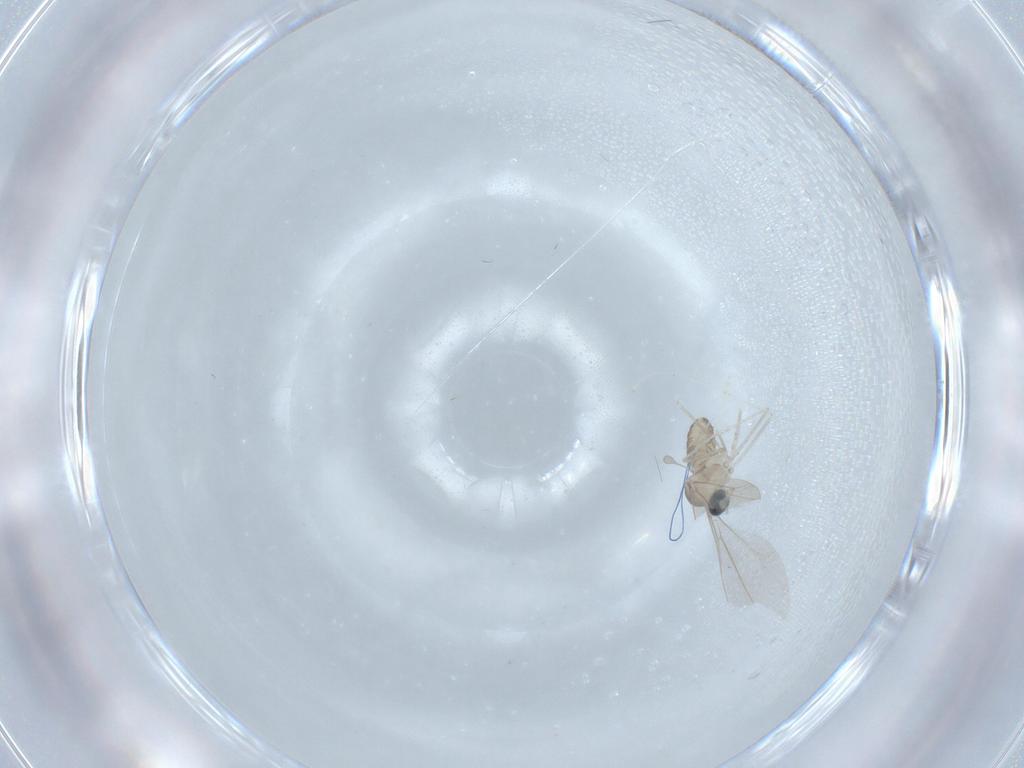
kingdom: Animalia
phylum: Arthropoda
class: Insecta
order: Diptera
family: Cecidomyiidae
